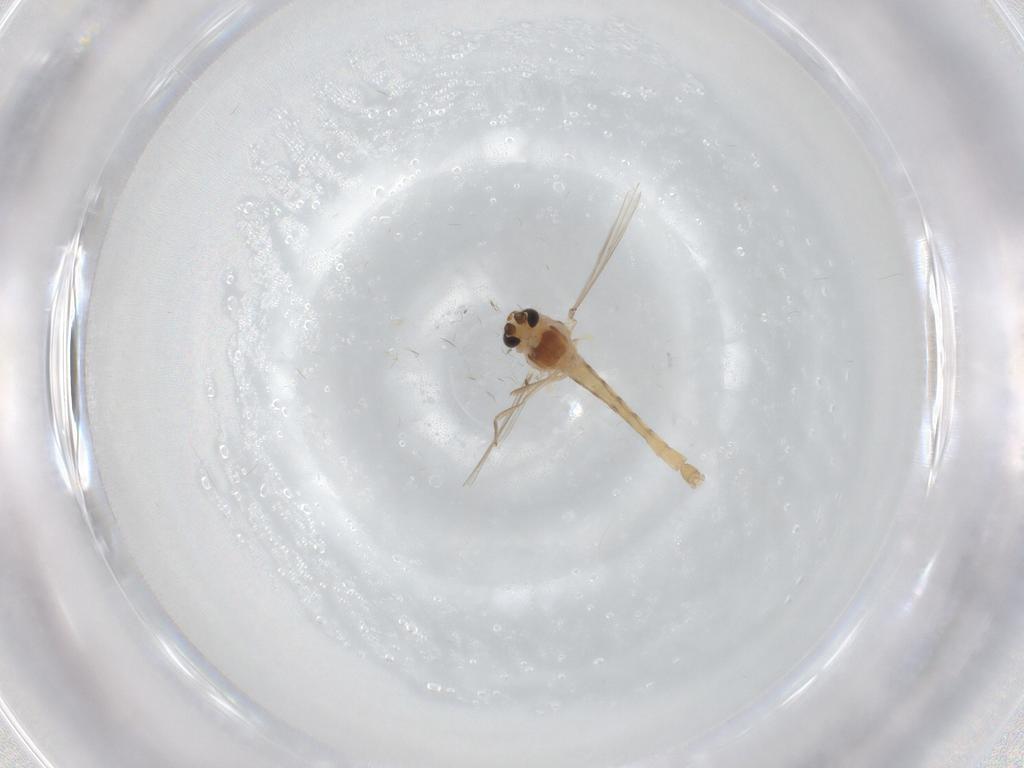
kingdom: Animalia
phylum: Arthropoda
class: Insecta
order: Diptera
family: Chironomidae
